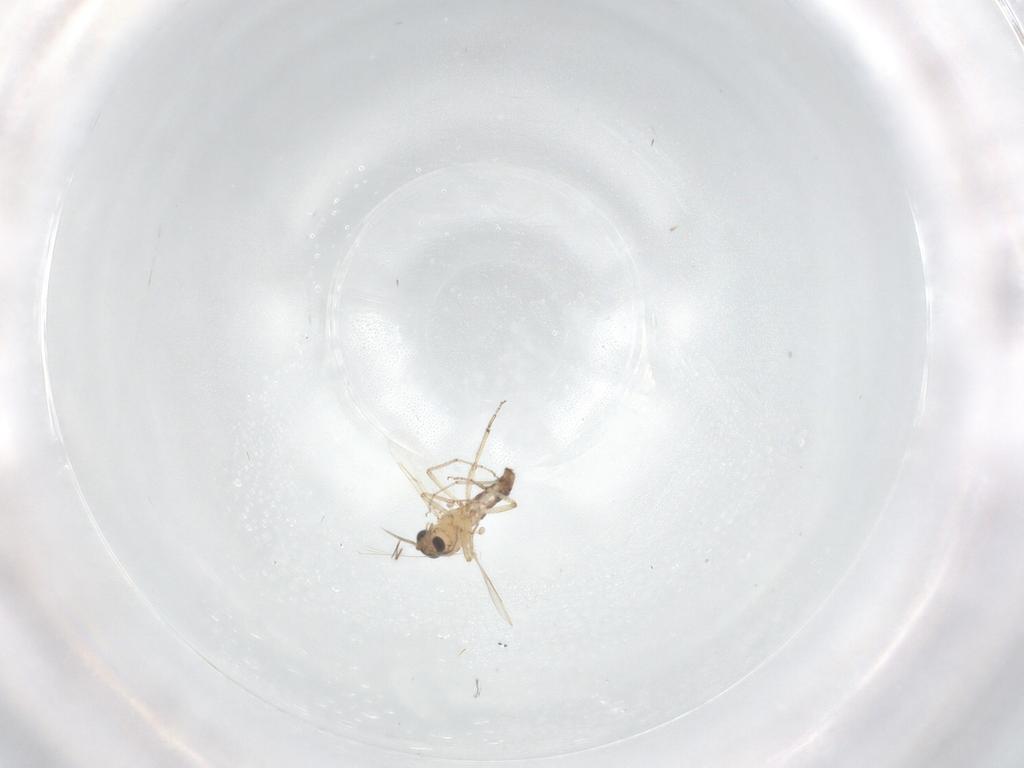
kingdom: Animalia
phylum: Arthropoda
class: Insecta
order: Diptera
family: Ceratopogonidae
